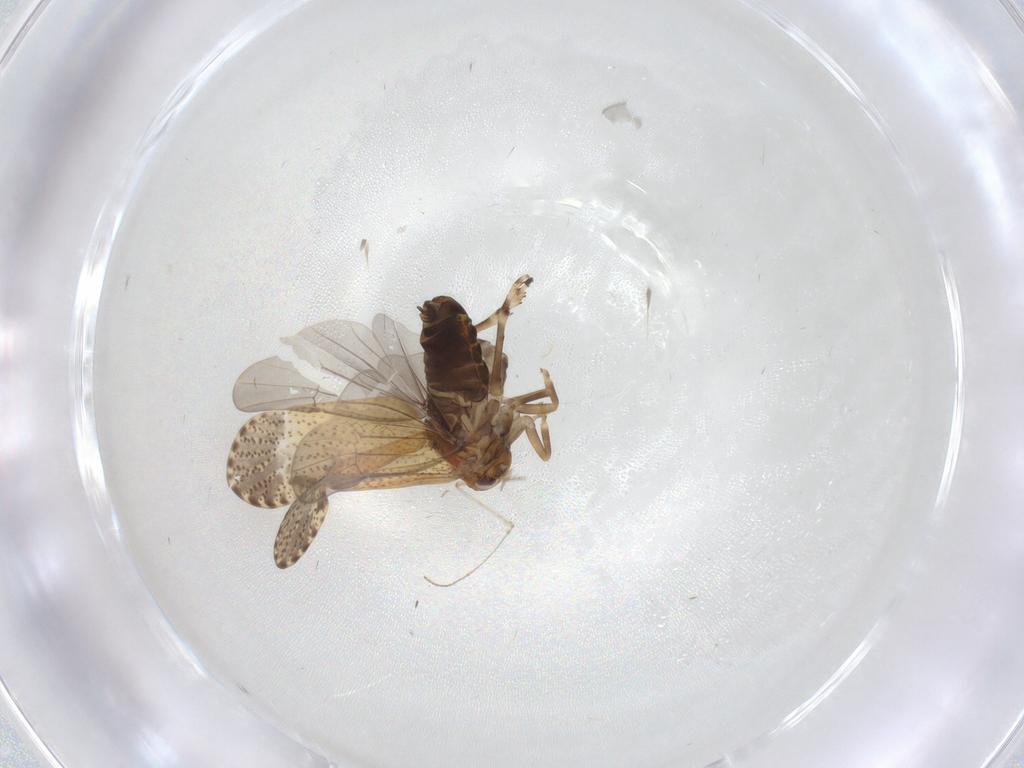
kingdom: Animalia
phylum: Arthropoda
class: Insecta
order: Hemiptera
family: Delphacidae
